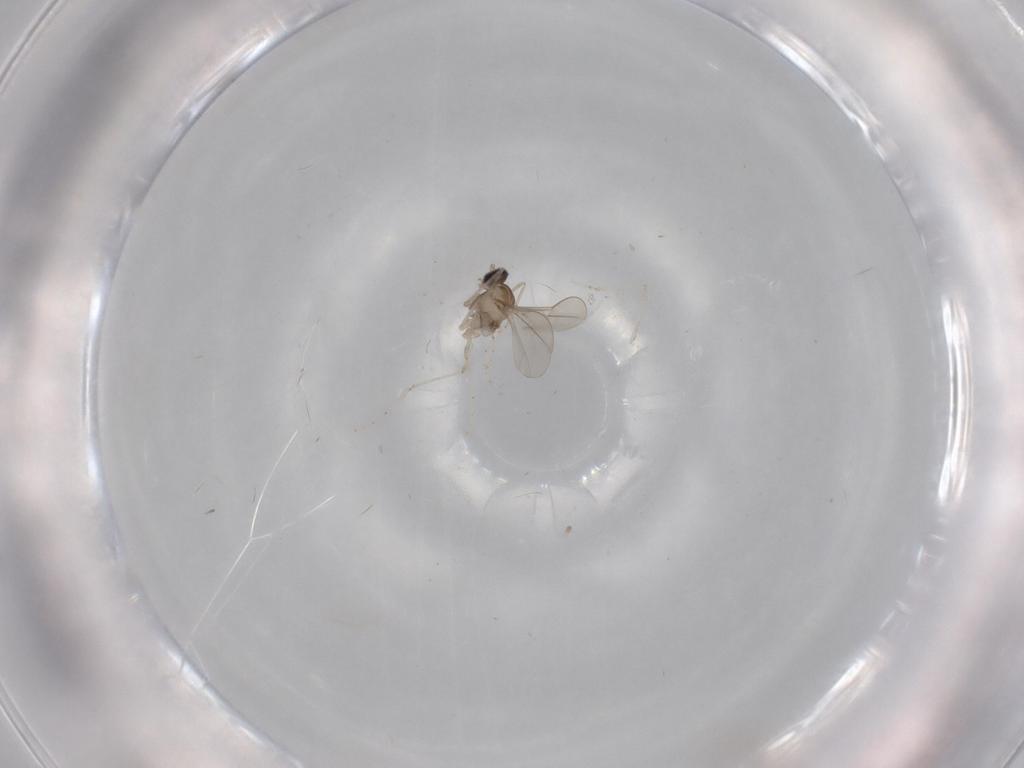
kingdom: Animalia
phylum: Arthropoda
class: Insecta
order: Diptera
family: Cecidomyiidae
